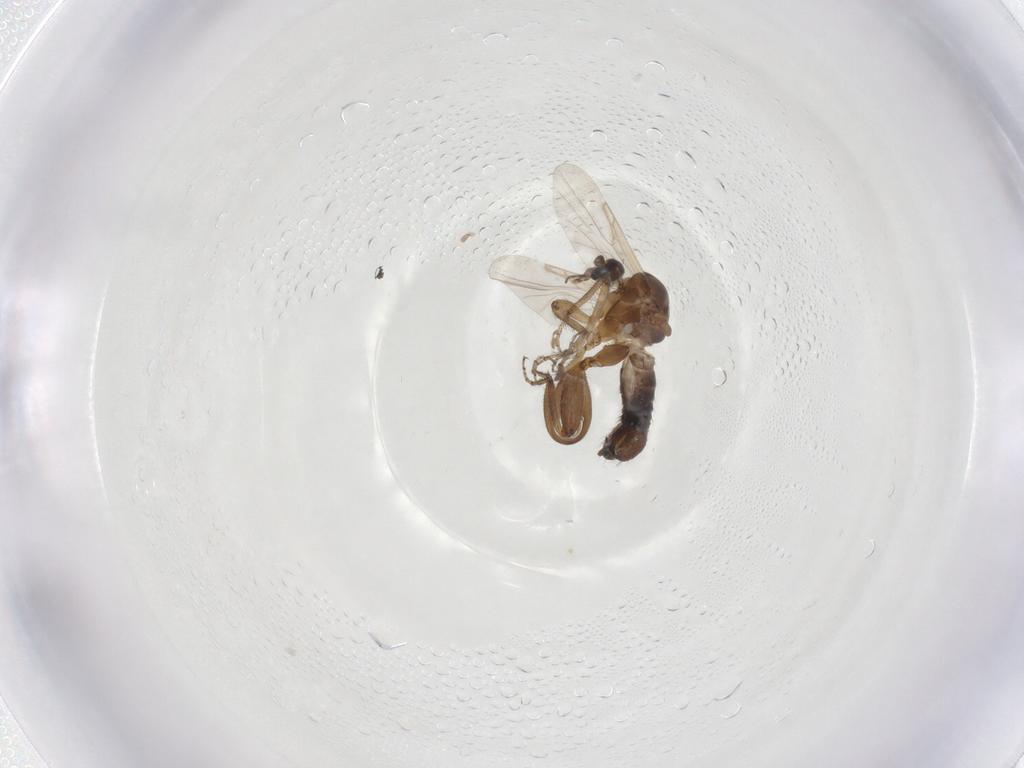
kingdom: Animalia
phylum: Arthropoda
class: Insecta
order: Diptera
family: Ceratopogonidae
